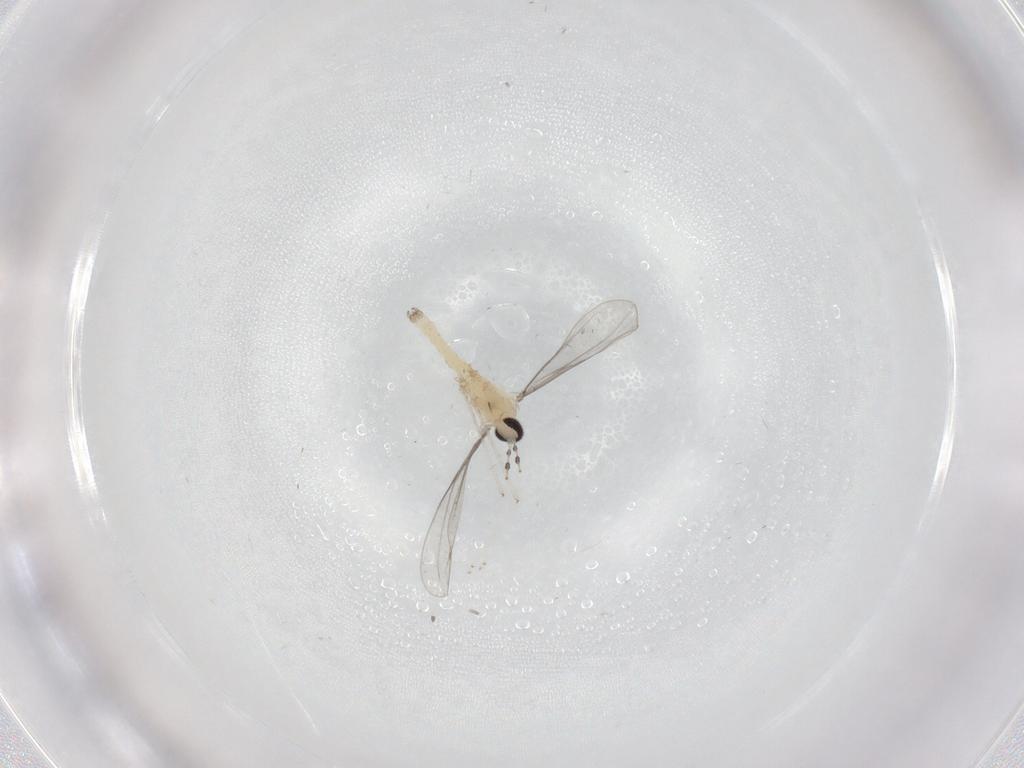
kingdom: Animalia
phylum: Arthropoda
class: Insecta
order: Diptera
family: Cecidomyiidae
